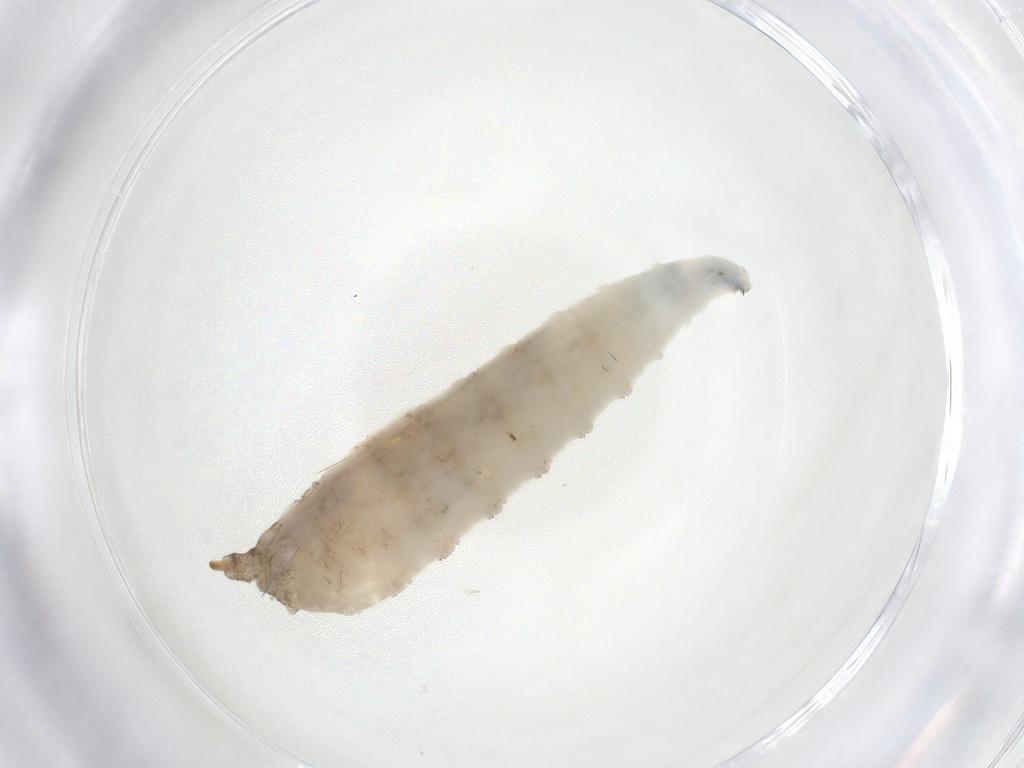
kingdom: Animalia
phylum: Arthropoda
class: Insecta
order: Diptera
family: Drosophilidae
